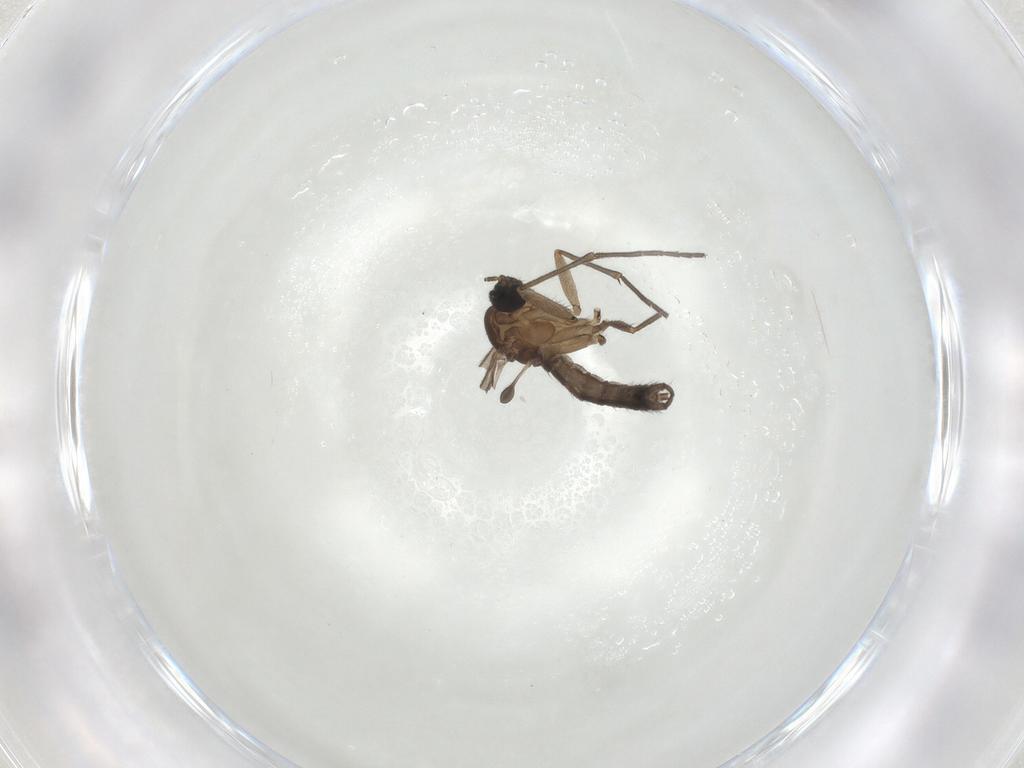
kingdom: Animalia
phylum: Arthropoda
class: Insecta
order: Diptera
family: Sciaridae
